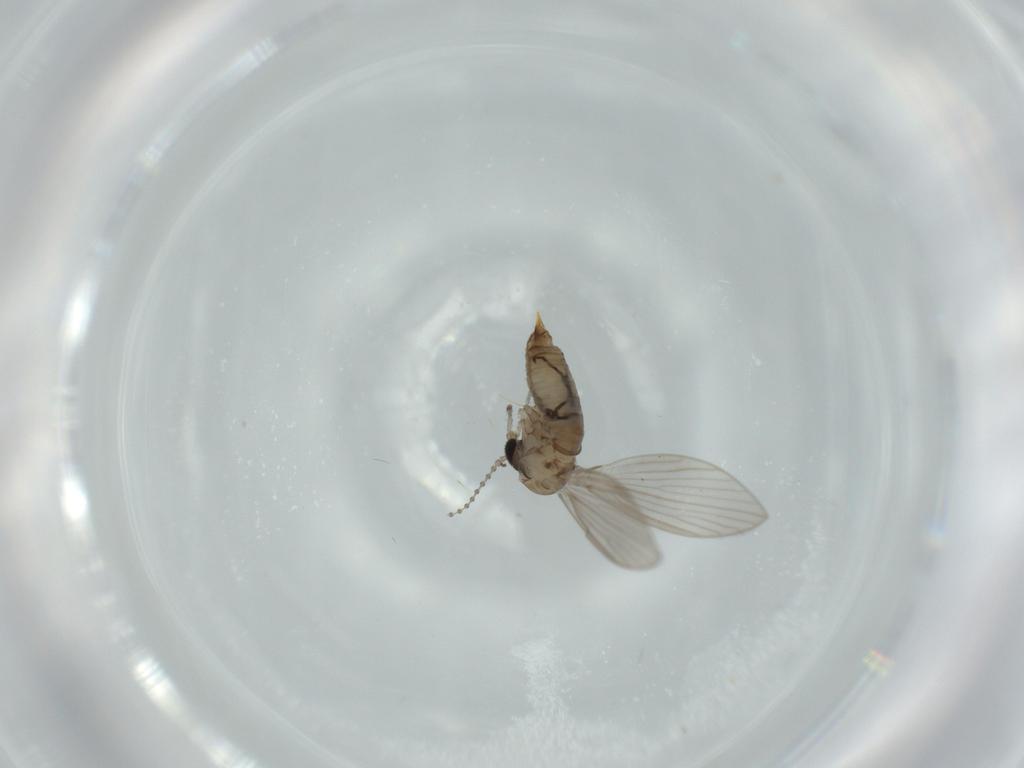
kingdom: Animalia
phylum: Arthropoda
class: Insecta
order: Diptera
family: Psychodidae
